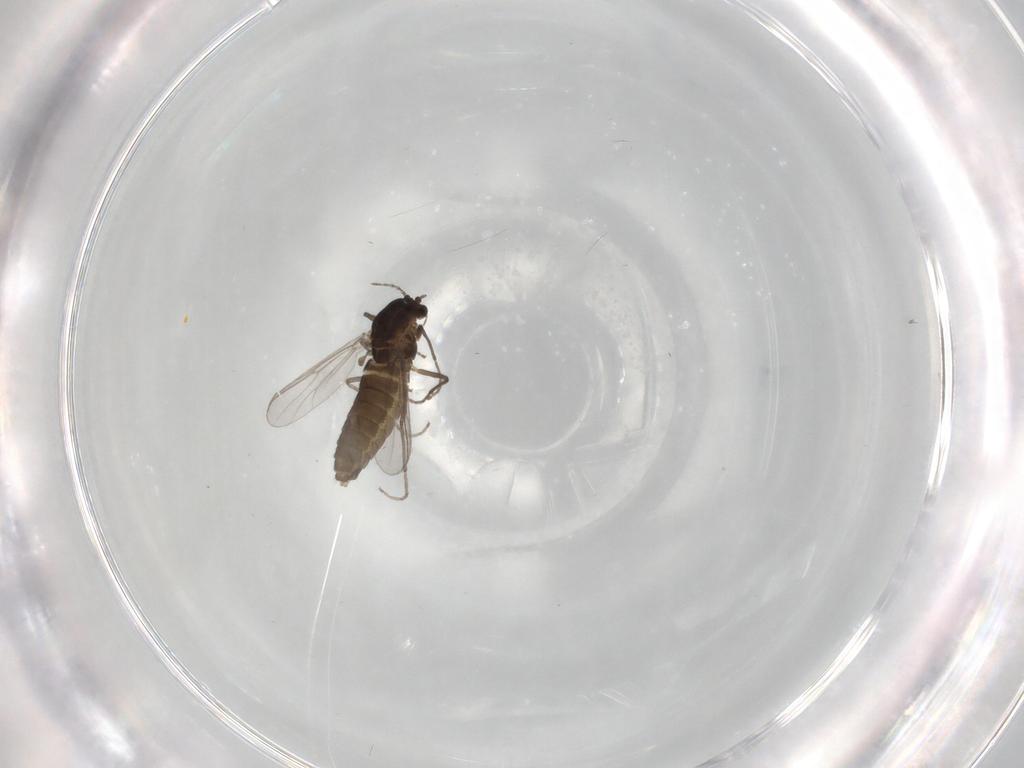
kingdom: Animalia
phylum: Arthropoda
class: Insecta
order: Diptera
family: Chironomidae
